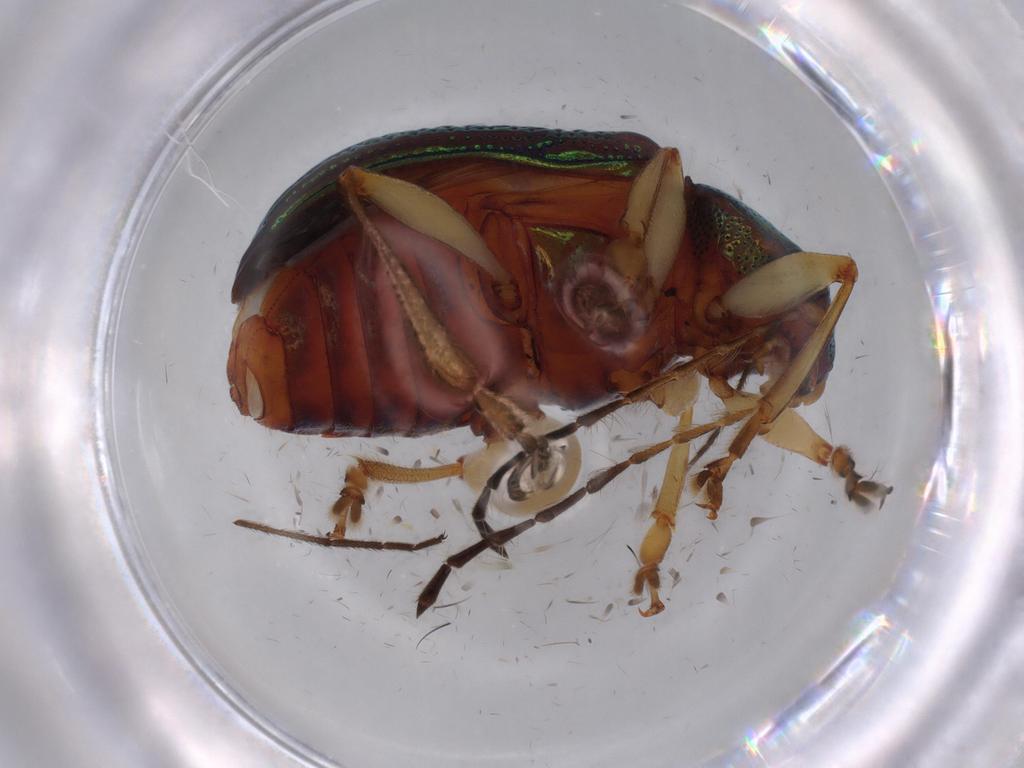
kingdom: Animalia
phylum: Arthropoda
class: Insecta
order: Coleoptera
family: Chrysomelidae
